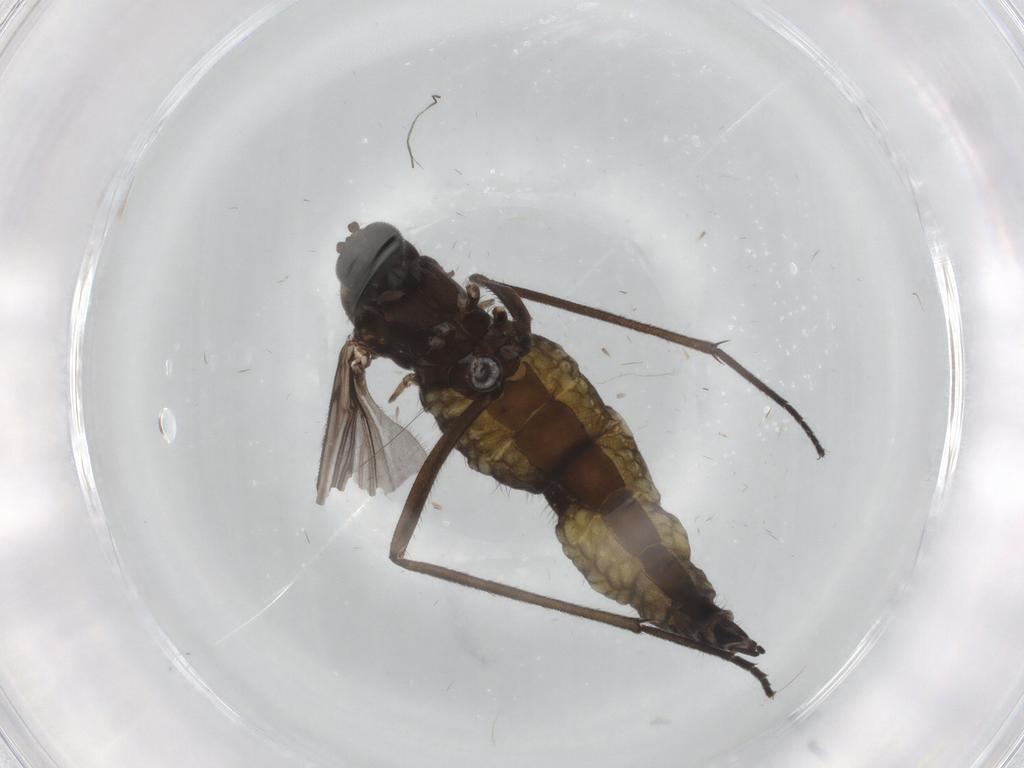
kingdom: Animalia
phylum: Arthropoda
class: Insecta
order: Diptera
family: Sciaridae
